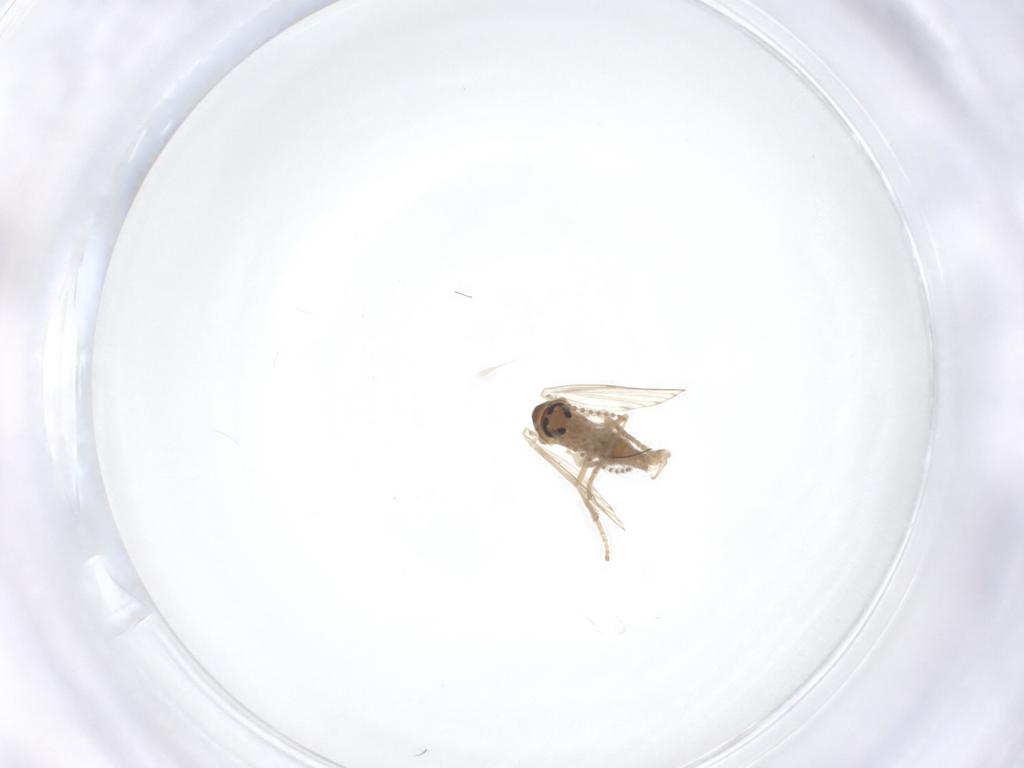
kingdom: Animalia
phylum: Arthropoda
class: Insecta
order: Diptera
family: Psychodidae
